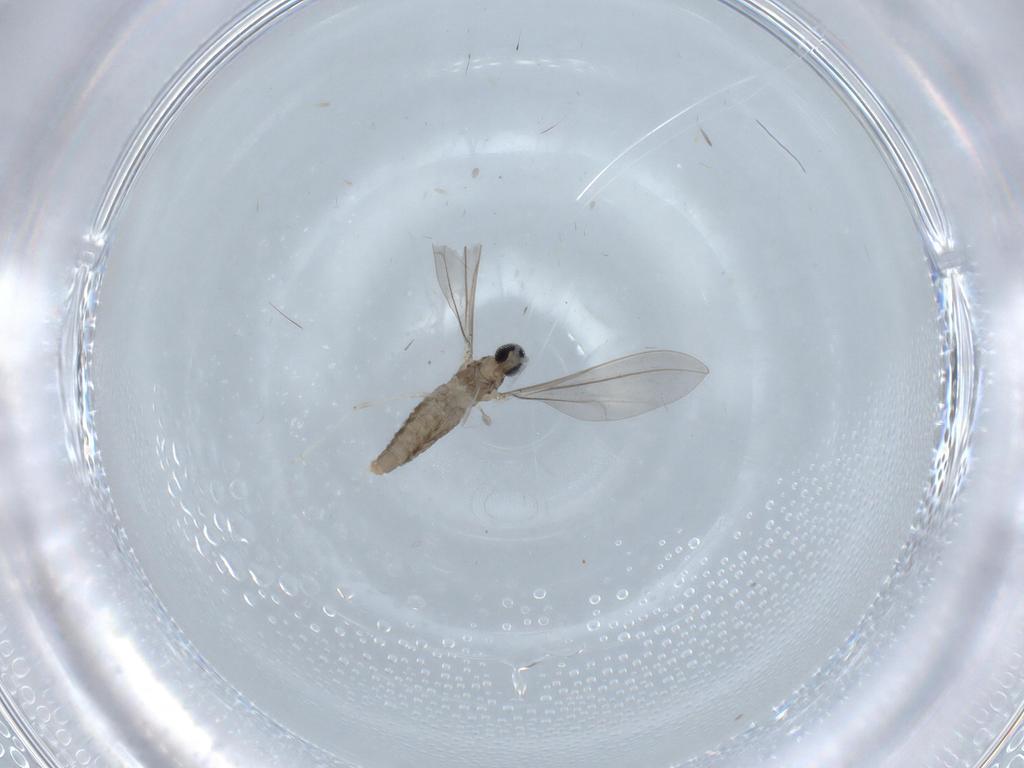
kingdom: Animalia
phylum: Arthropoda
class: Insecta
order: Diptera
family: Cecidomyiidae
